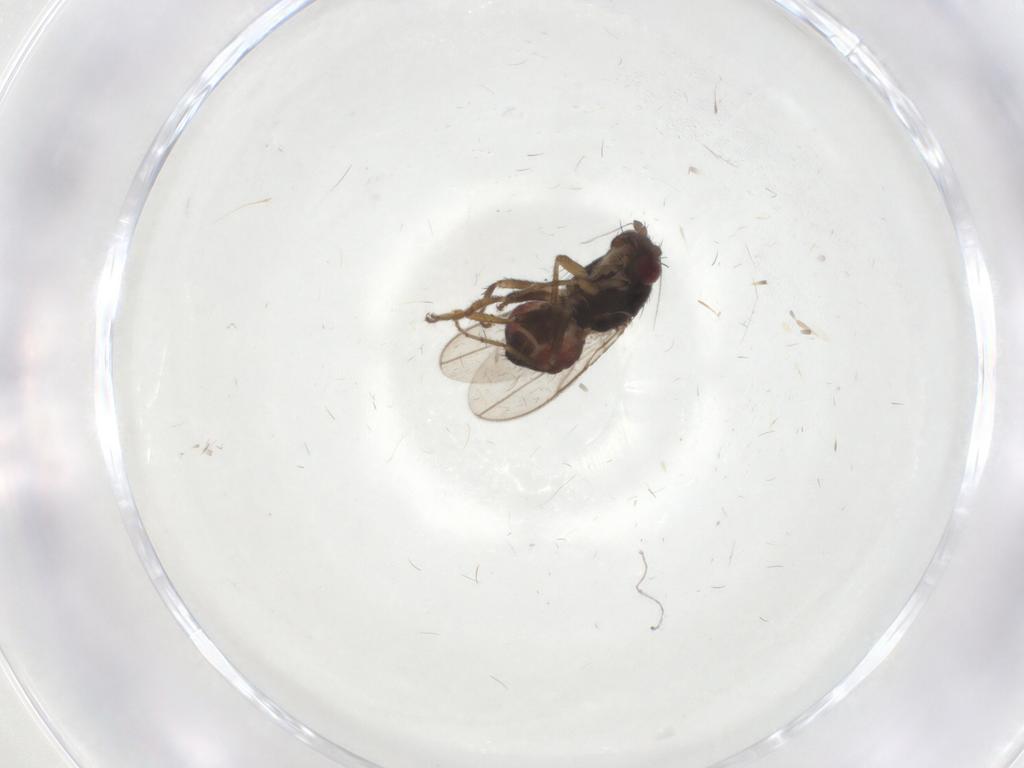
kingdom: Animalia
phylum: Arthropoda
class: Insecta
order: Diptera
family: Sphaeroceridae
